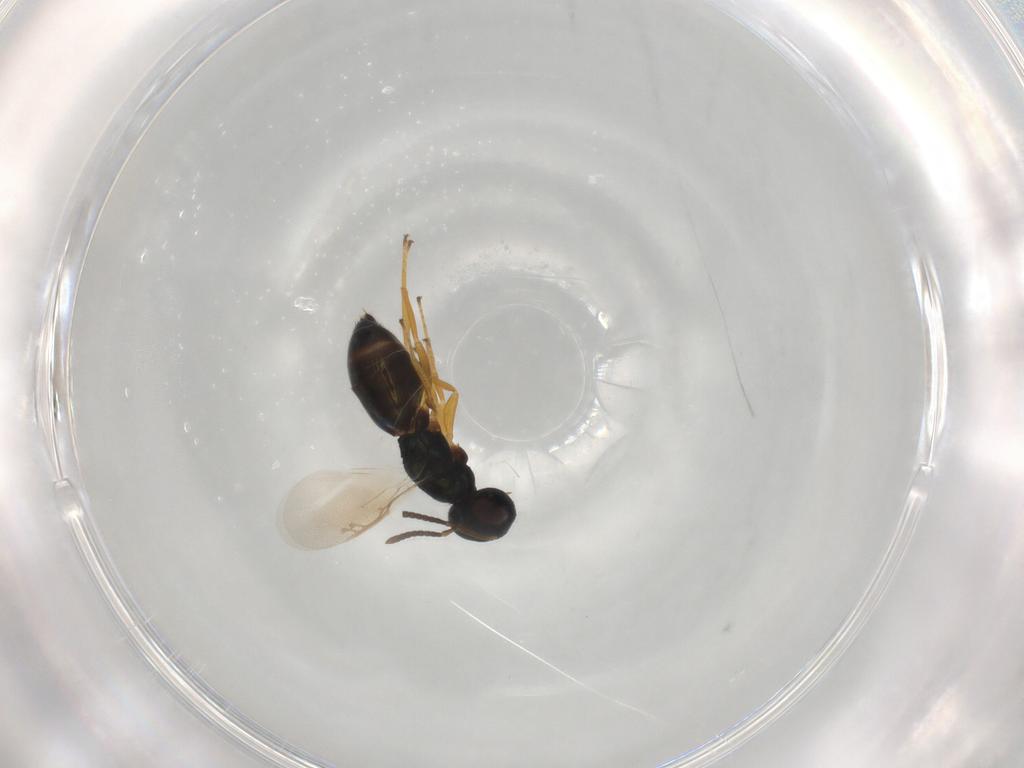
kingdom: Animalia
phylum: Arthropoda
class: Insecta
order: Hymenoptera
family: Pteromalidae
